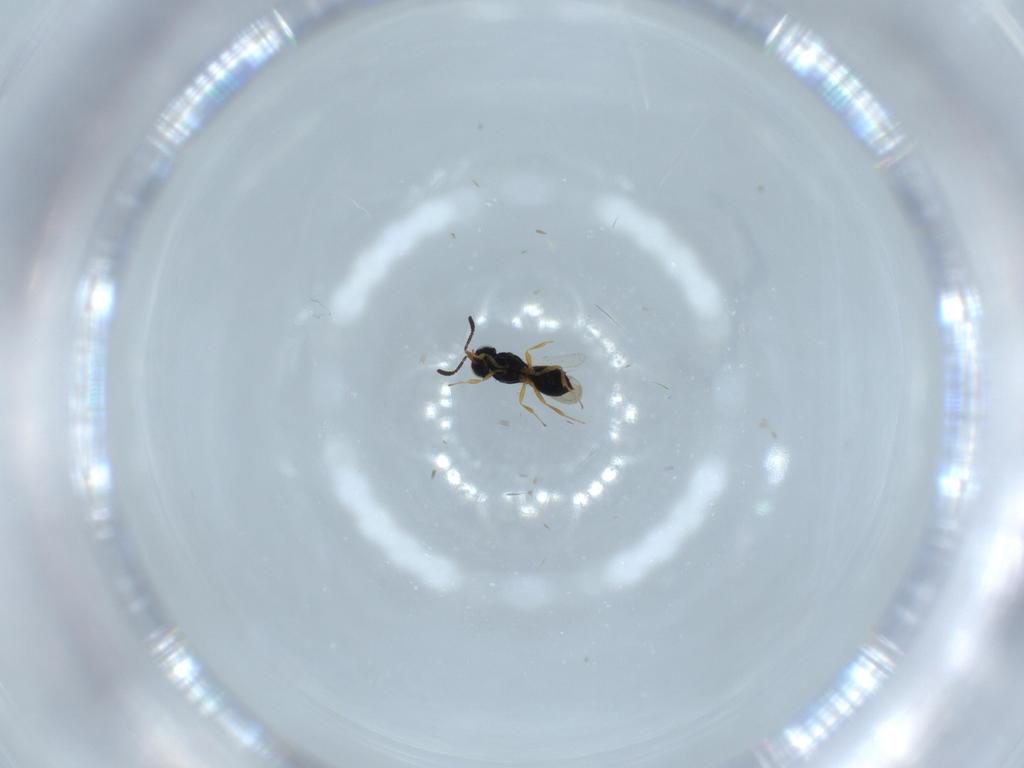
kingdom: Animalia
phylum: Arthropoda
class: Insecta
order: Hymenoptera
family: Scelionidae
